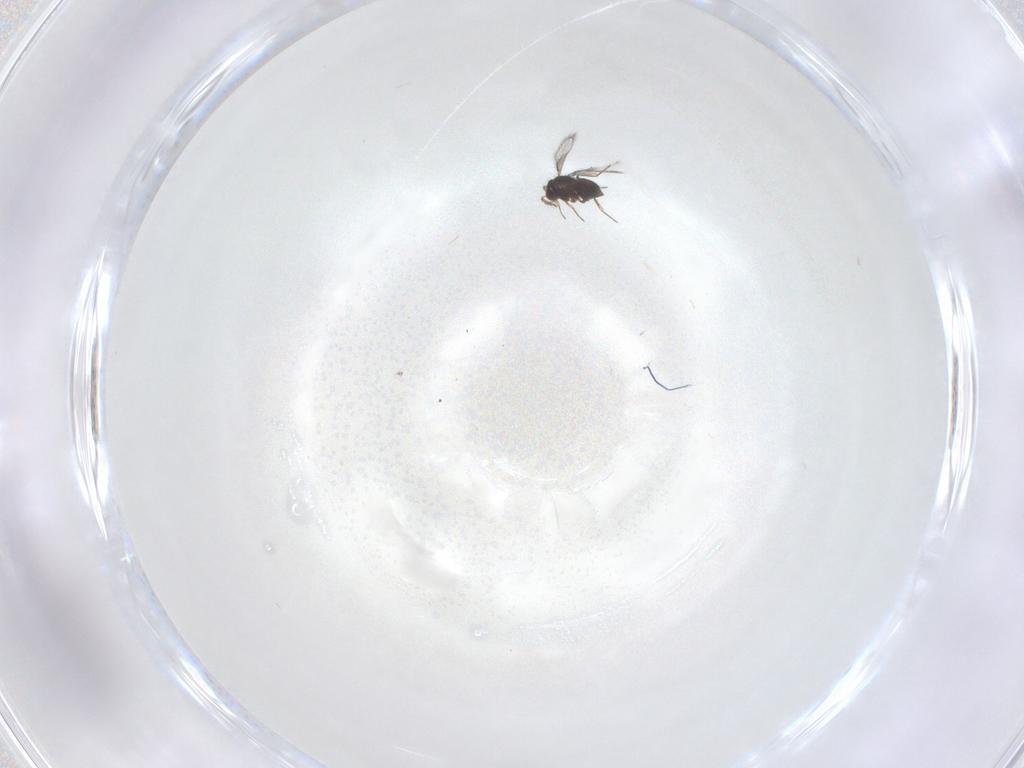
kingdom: Animalia
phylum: Arthropoda
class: Insecta
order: Hymenoptera
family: Scelionidae
